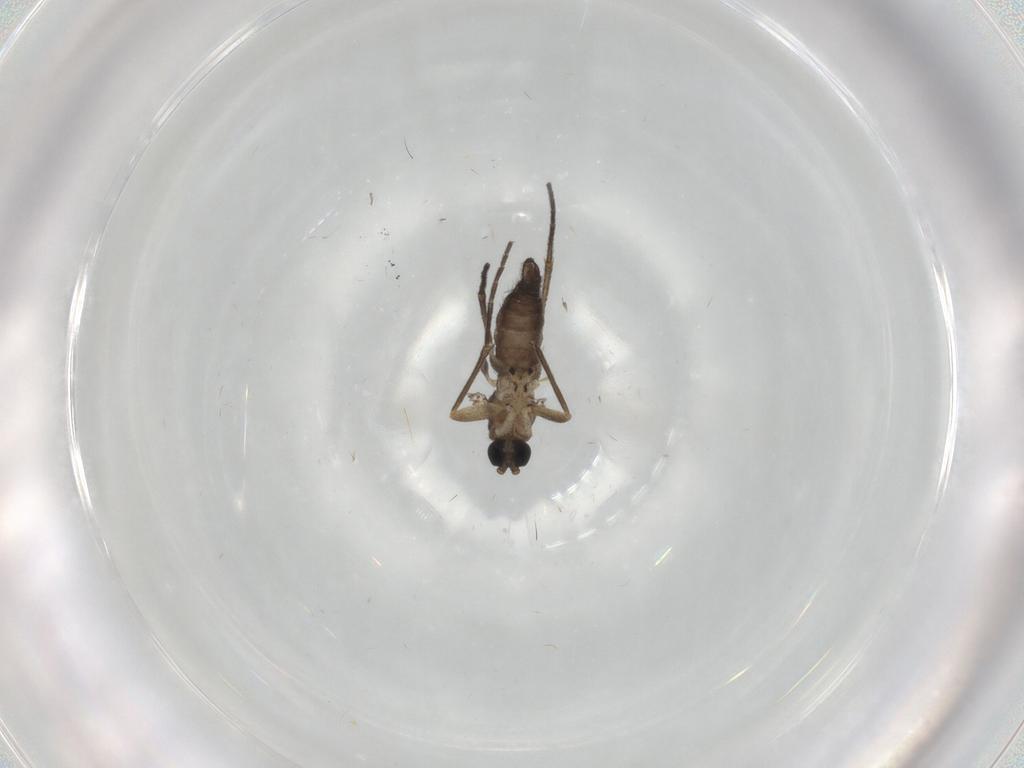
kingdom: Animalia
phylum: Arthropoda
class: Insecta
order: Diptera
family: Sciaridae
